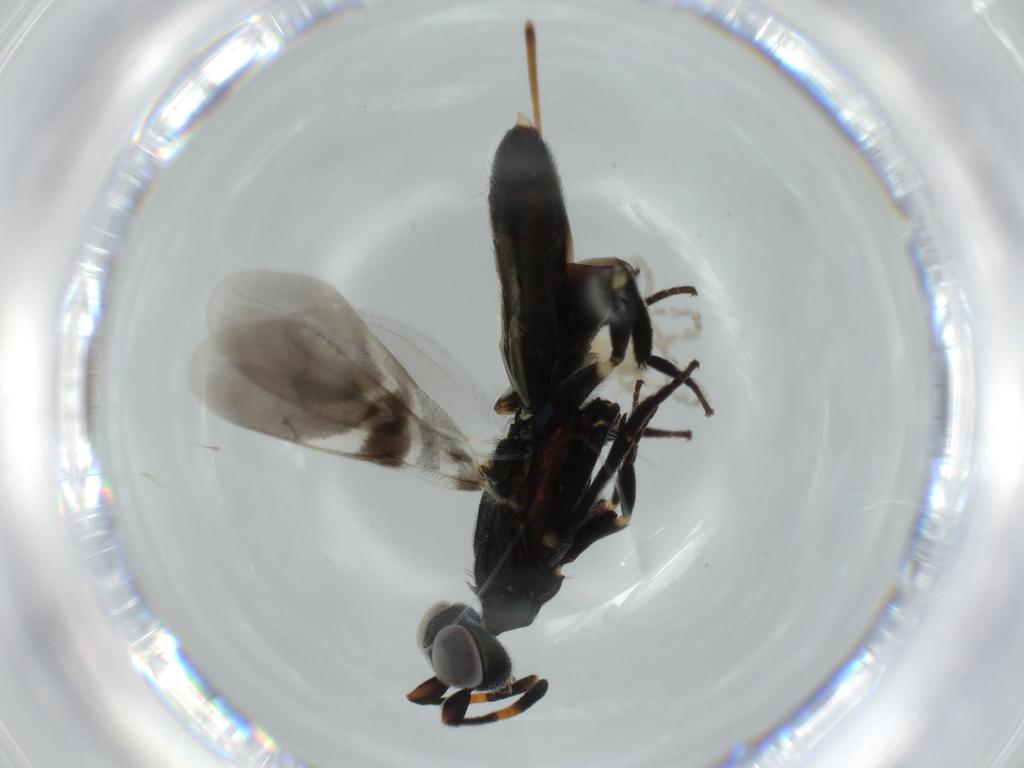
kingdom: Animalia
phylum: Arthropoda
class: Insecta
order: Hymenoptera
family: Eupelmidae
